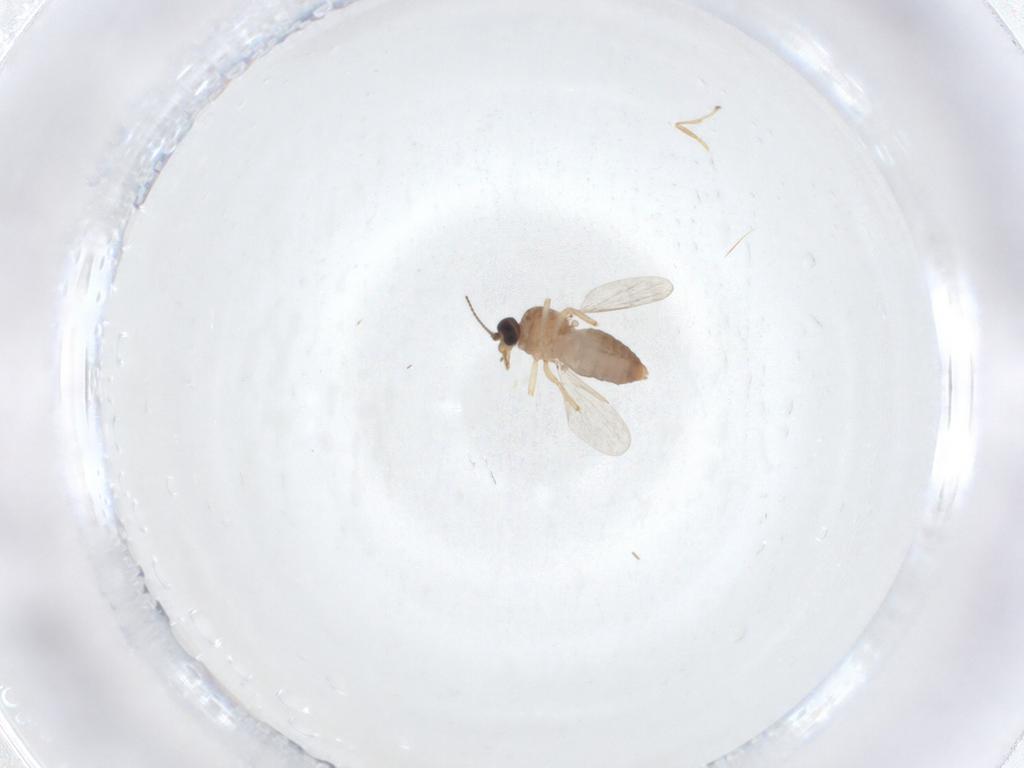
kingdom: Animalia
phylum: Arthropoda
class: Insecta
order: Diptera
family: Ceratopogonidae
